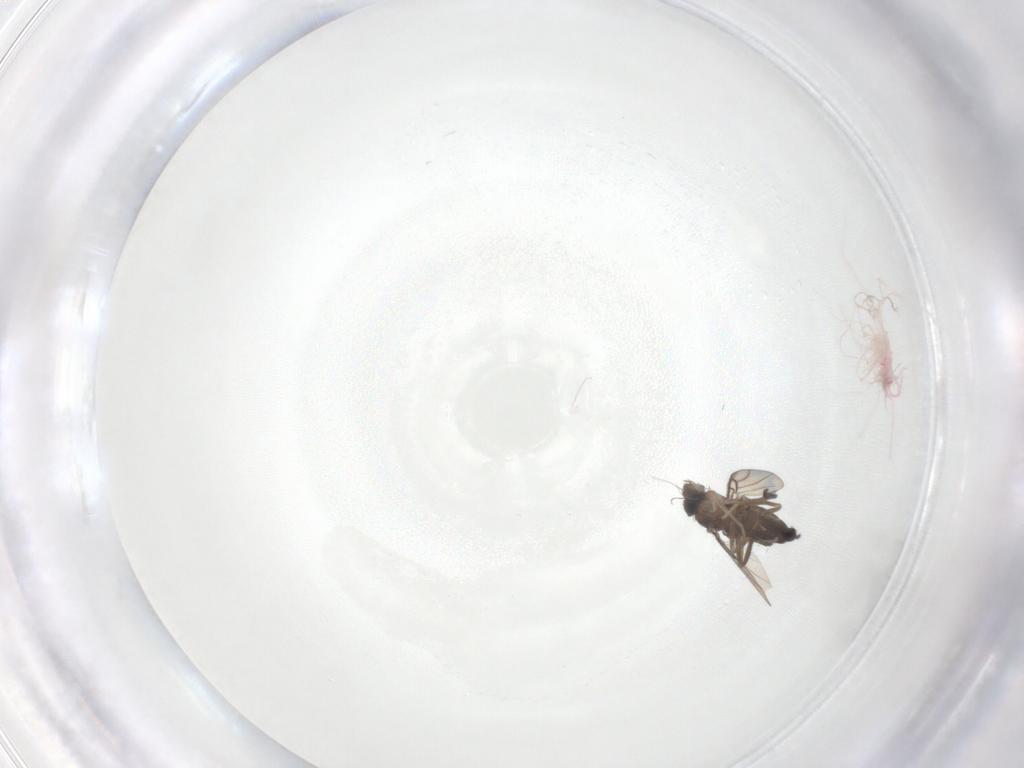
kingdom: Animalia
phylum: Arthropoda
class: Insecta
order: Diptera
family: Phoridae
